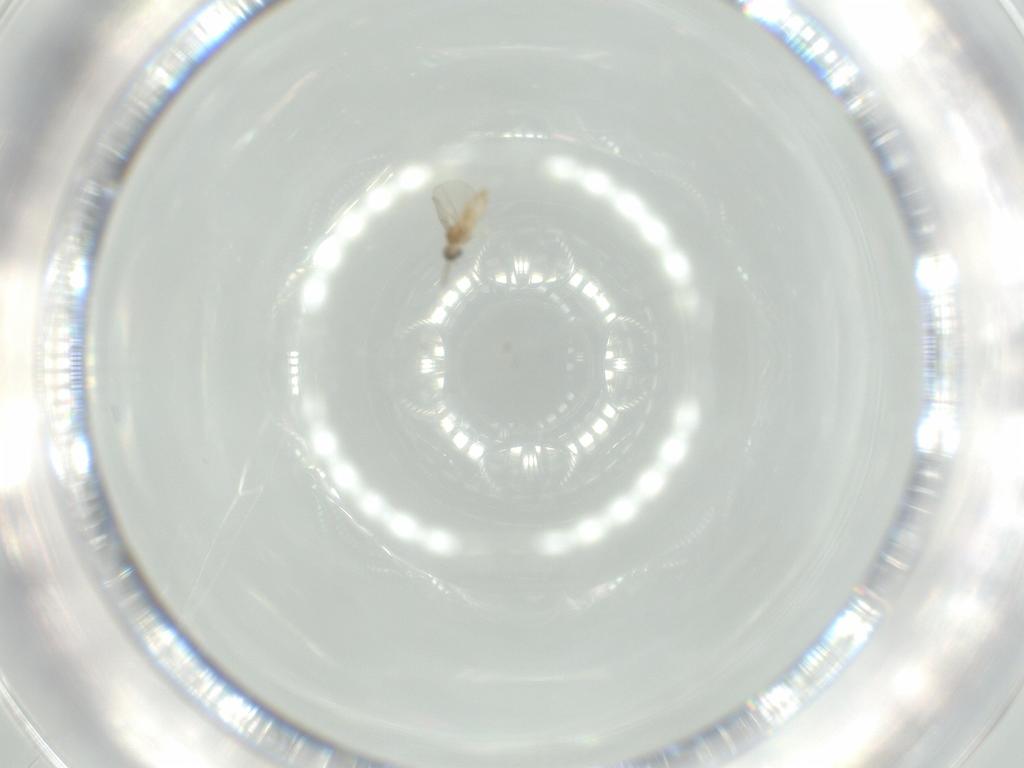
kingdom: Animalia
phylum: Arthropoda
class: Insecta
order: Diptera
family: Cecidomyiidae
